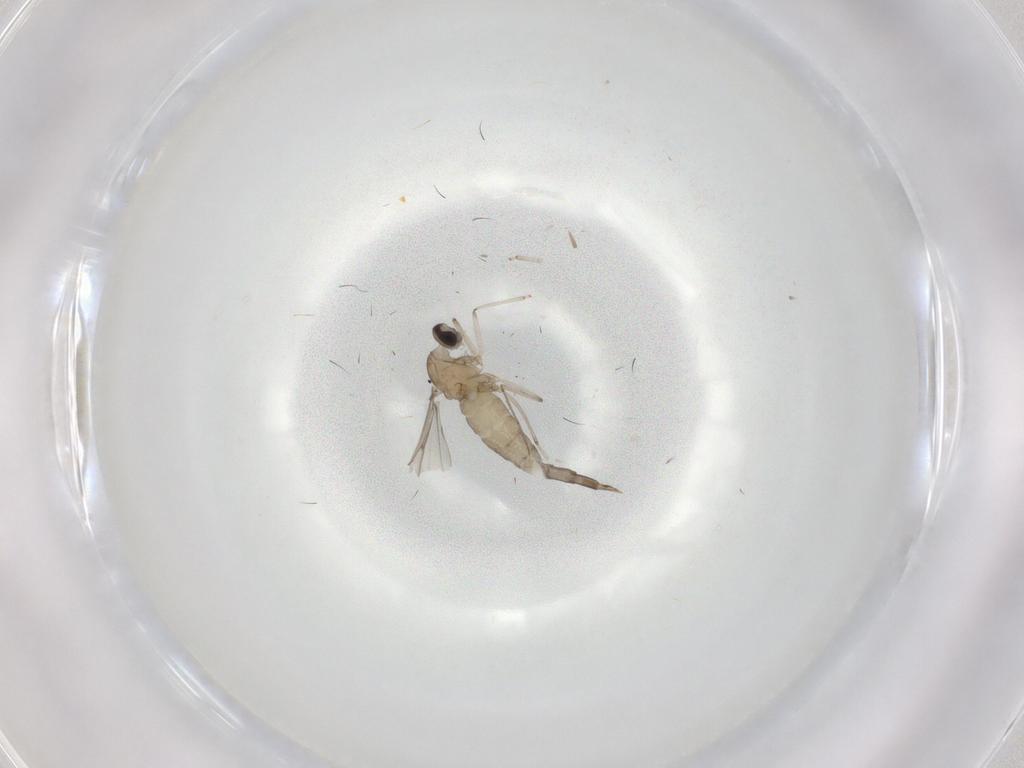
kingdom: Animalia
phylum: Arthropoda
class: Insecta
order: Diptera
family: Cecidomyiidae
